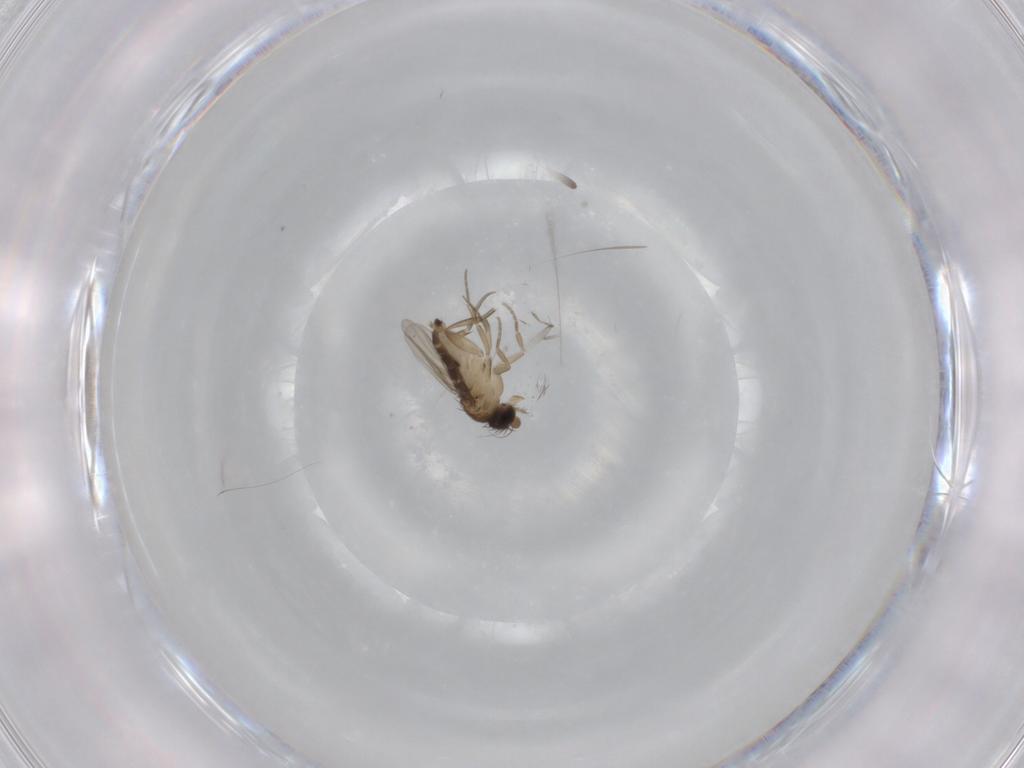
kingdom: Animalia
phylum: Arthropoda
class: Insecta
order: Diptera
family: Phoridae
